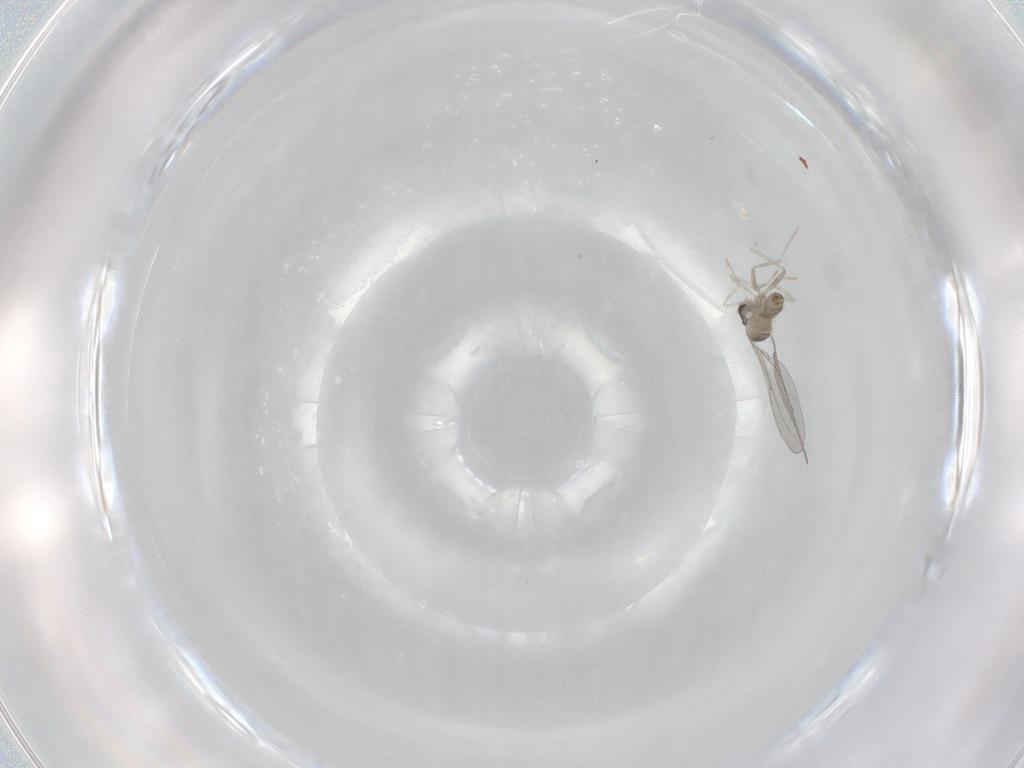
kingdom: Animalia
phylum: Arthropoda
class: Insecta
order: Diptera
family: Cecidomyiidae
